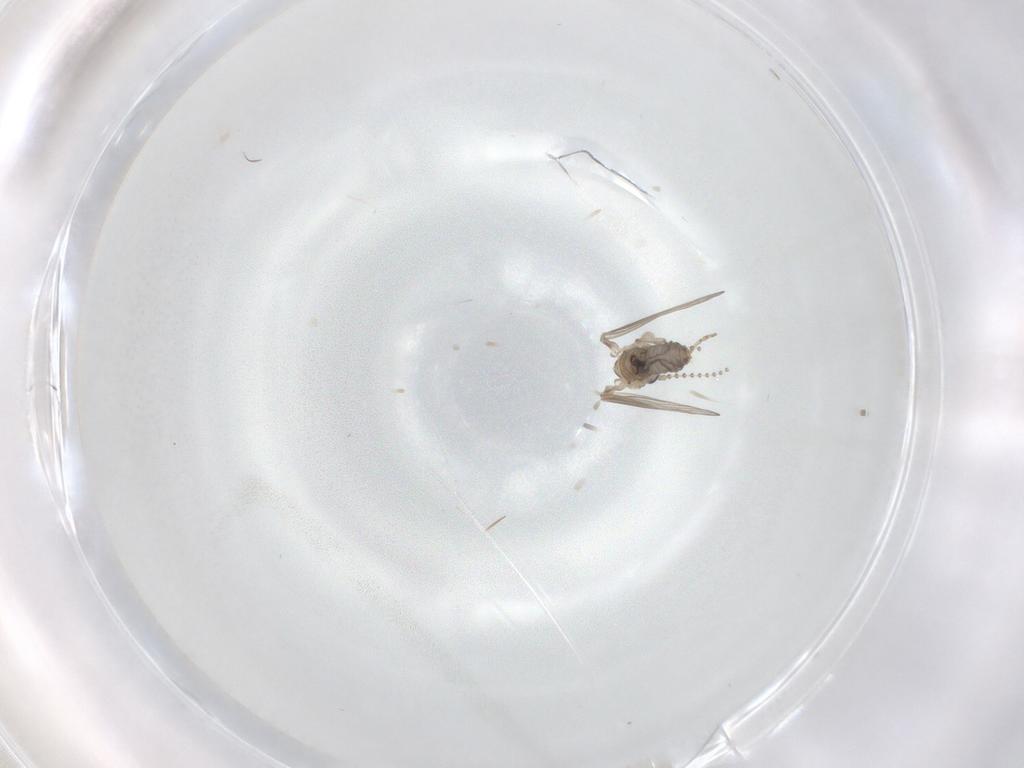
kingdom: Animalia
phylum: Arthropoda
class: Insecta
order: Diptera
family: Psychodidae
